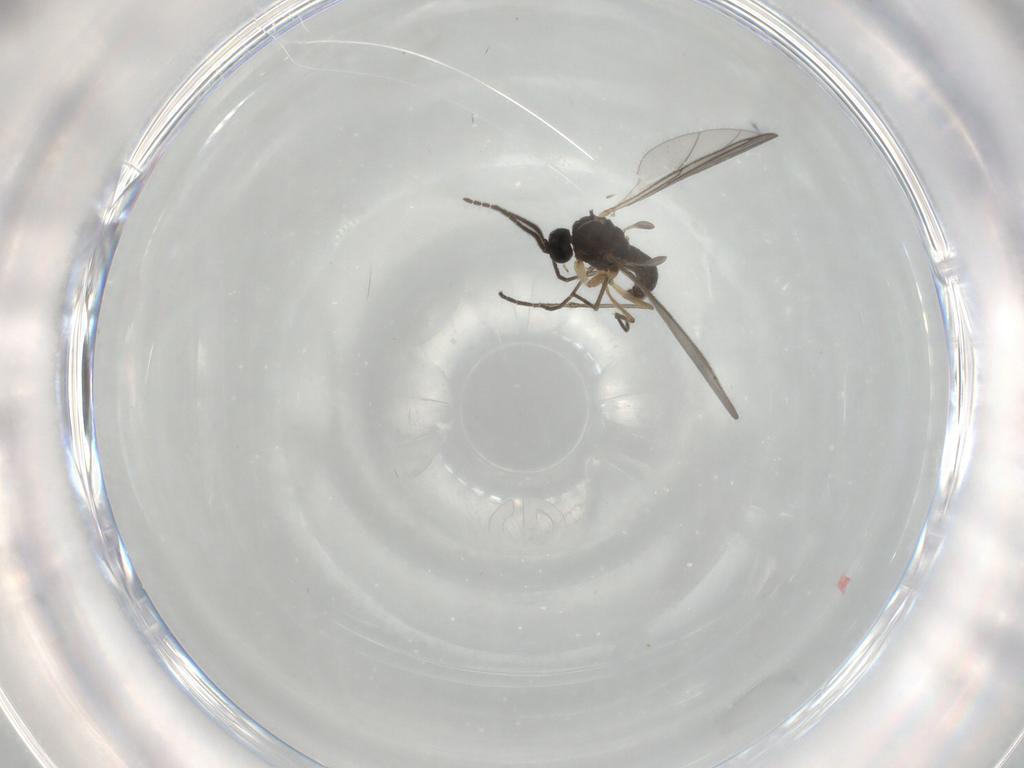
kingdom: Animalia
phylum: Arthropoda
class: Insecta
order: Diptera
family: Sciaridae
